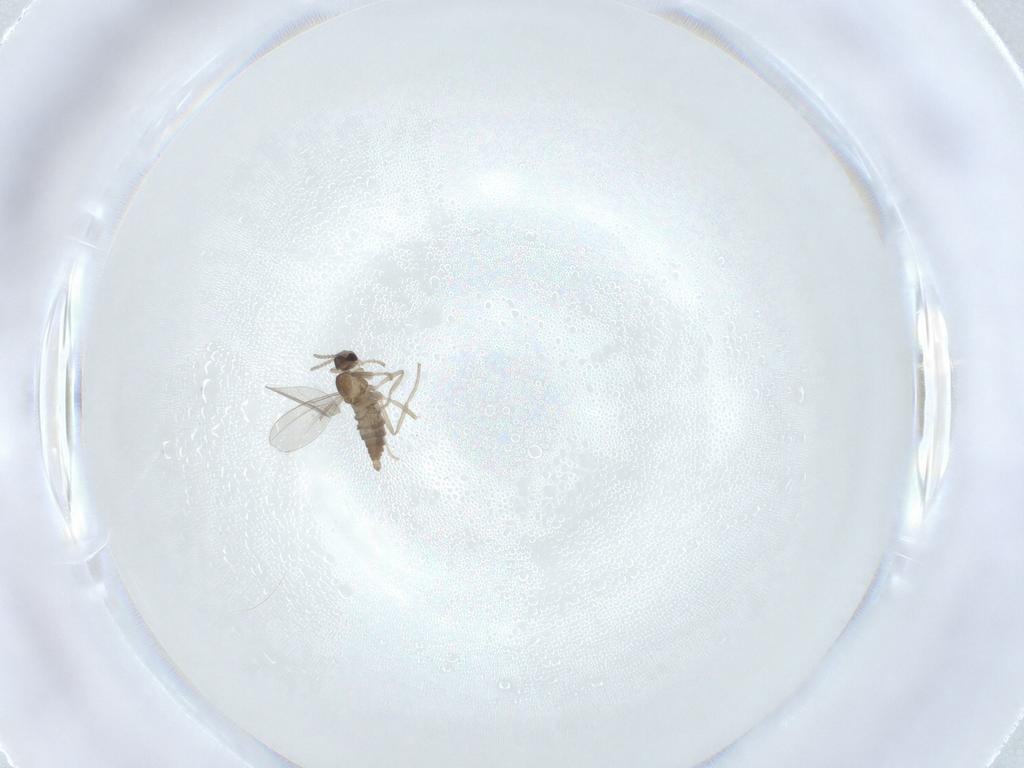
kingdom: Animalia
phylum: Arthropoda
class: Insecta
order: Diptera
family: Cecidomyiidae
